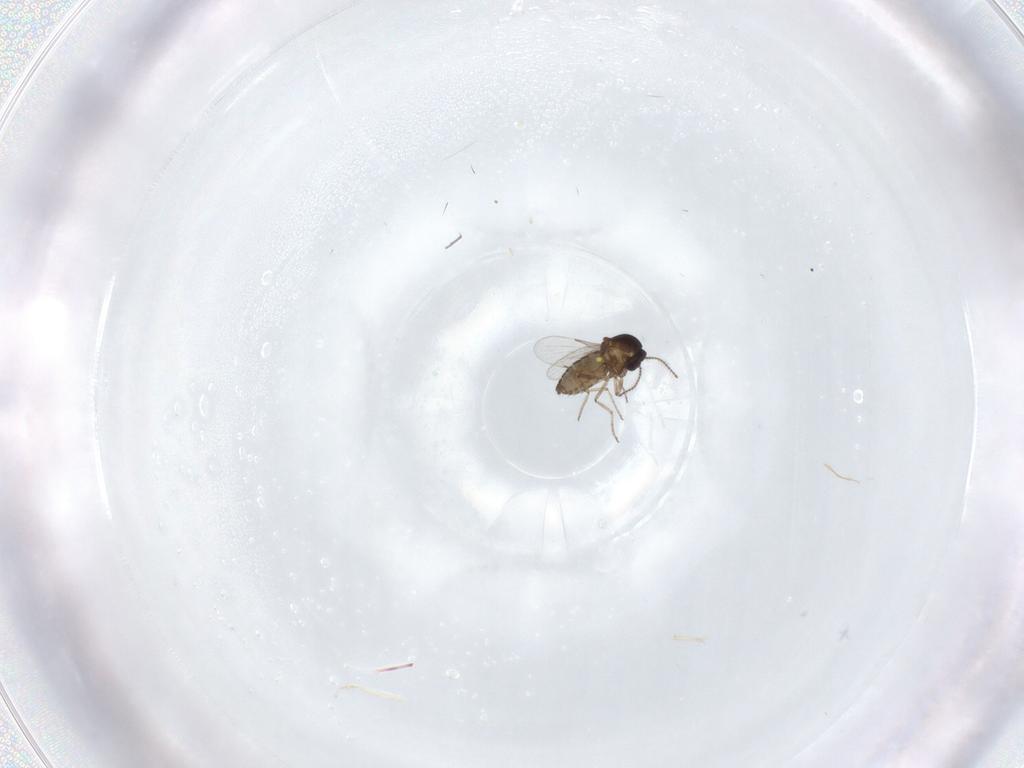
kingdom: Animalia
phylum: Arthropoda
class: Insecta
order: Diptera
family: Ceratopogonidae
